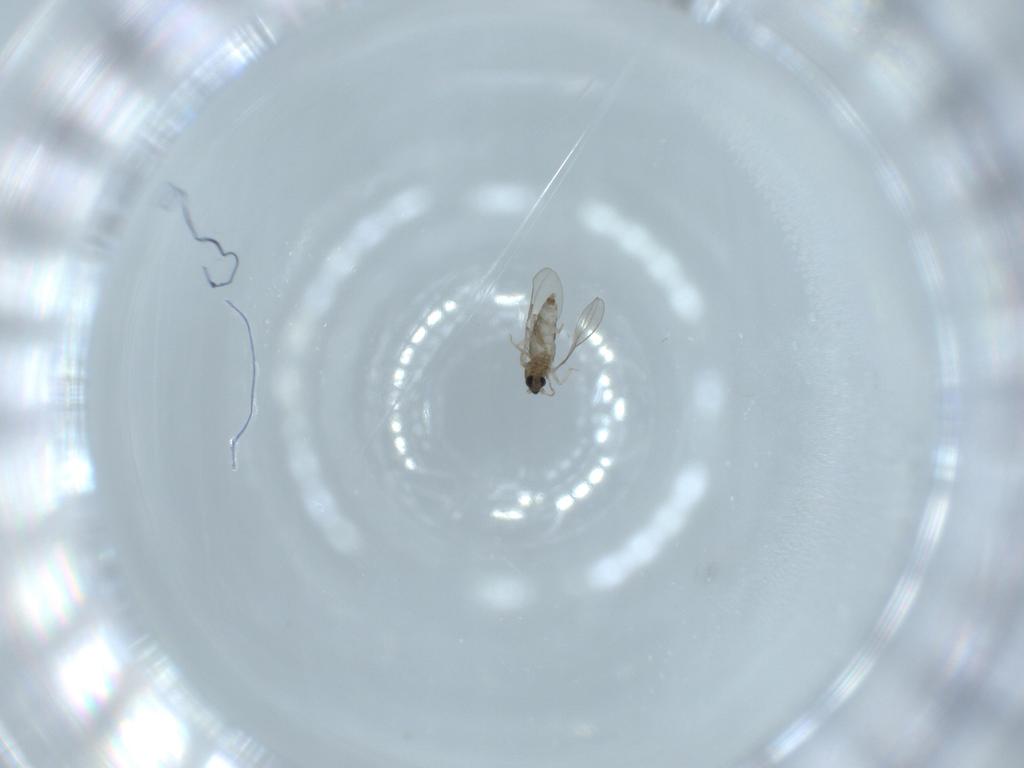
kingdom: Animalia
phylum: Arthropoda
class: Insecta
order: Diptera
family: Cecidomyiidae
